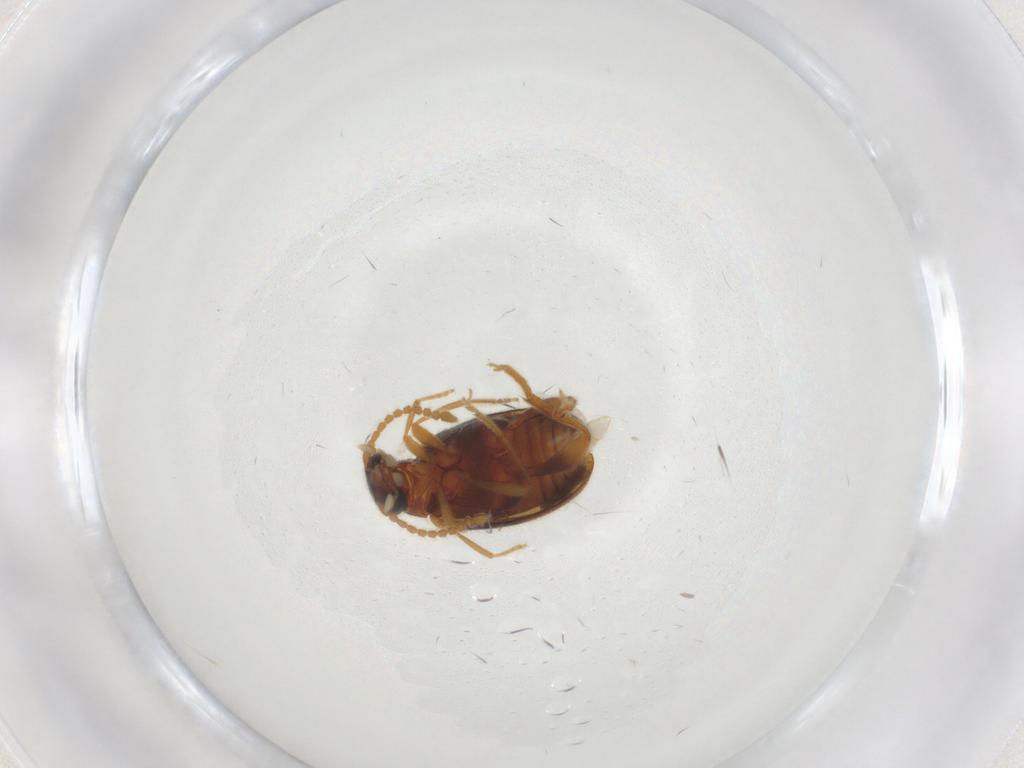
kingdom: Animalia
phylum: Arthropoda
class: Insecta
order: Coleoptera
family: Aderidae
